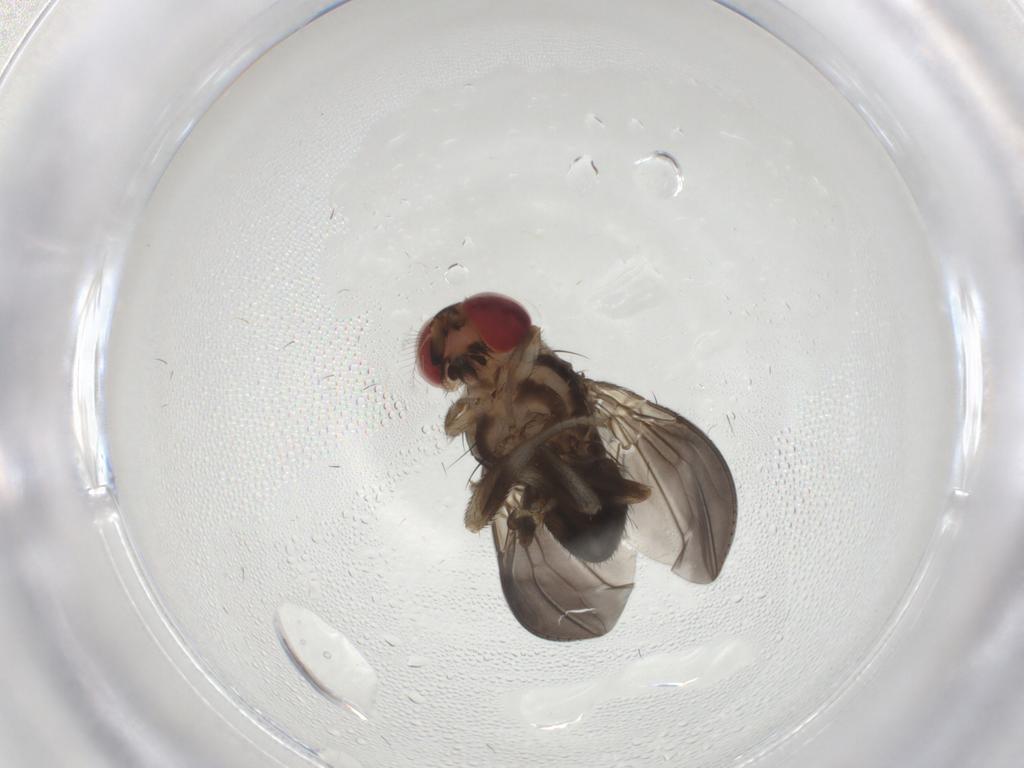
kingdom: Animalia
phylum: Arthropoda
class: Insecta
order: Diptera
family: Drosophilidae
